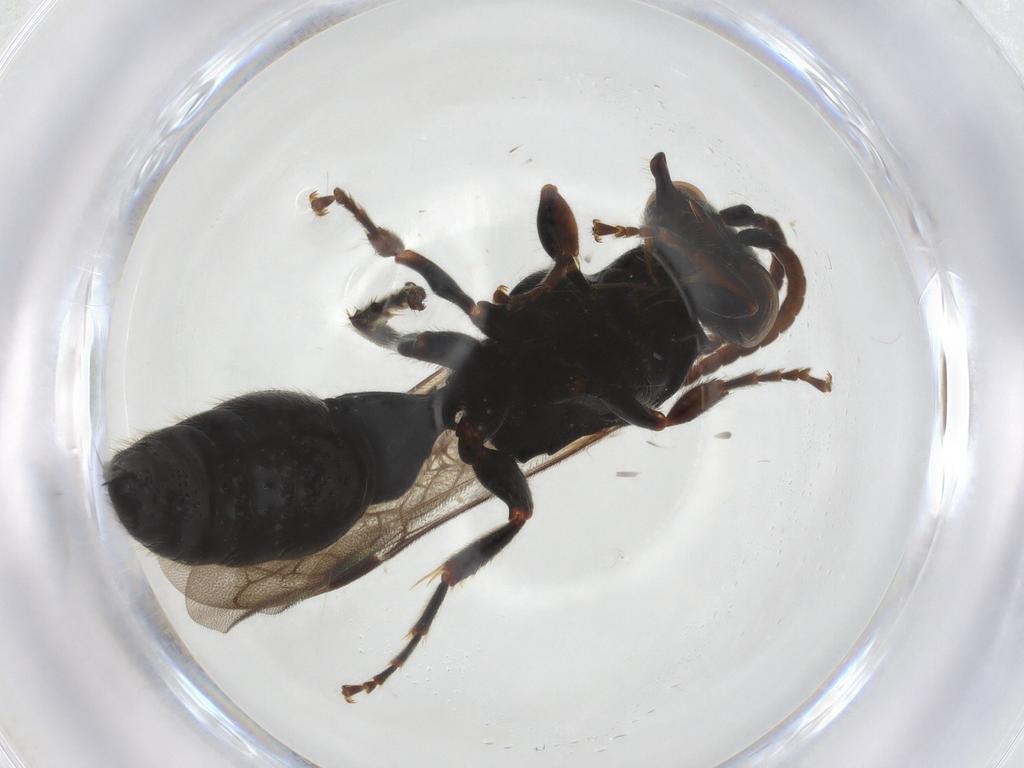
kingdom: Animalia
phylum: Arthropoda
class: Insecta
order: Hymenoptera
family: Tiphiidae
